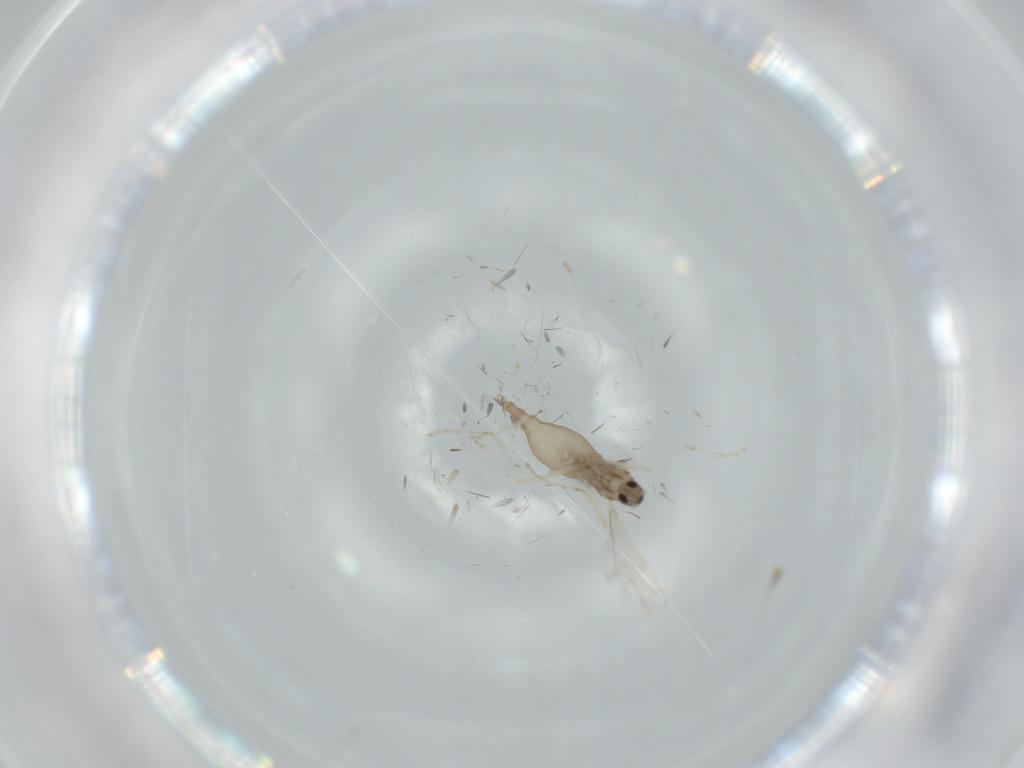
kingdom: Animalia
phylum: Arthropoda
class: Insecta
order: Diptera
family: Cecidomyiidae
